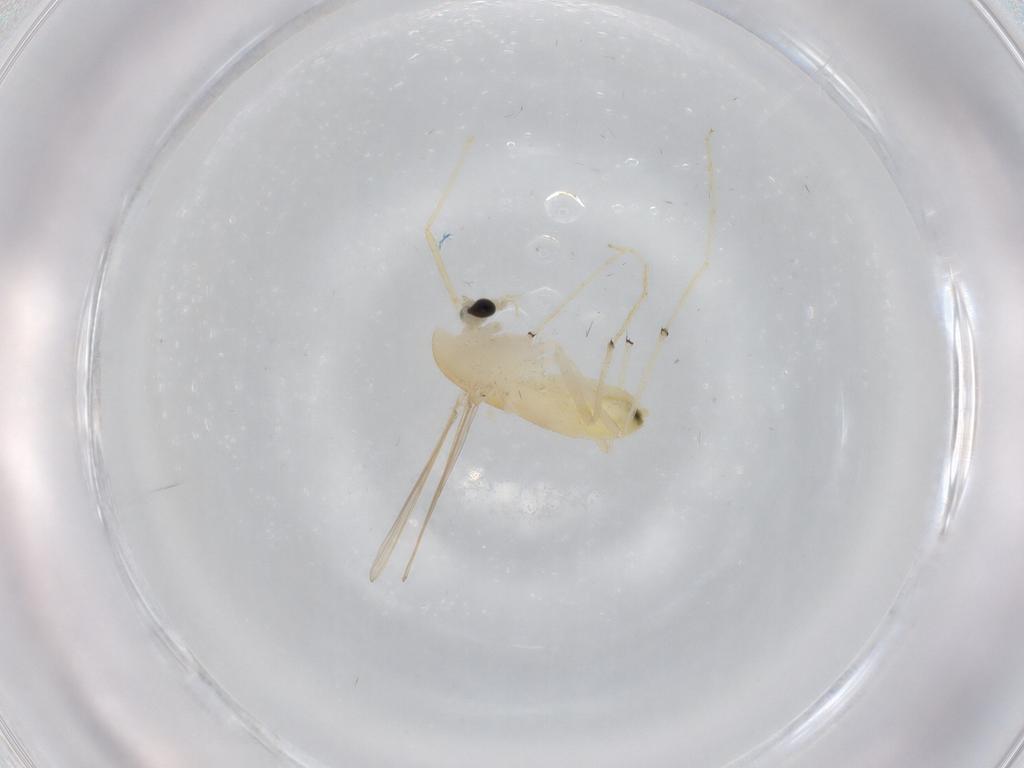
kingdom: Animalia
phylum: Arthropoda
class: Insecta
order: Diptera
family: Chironomidae
